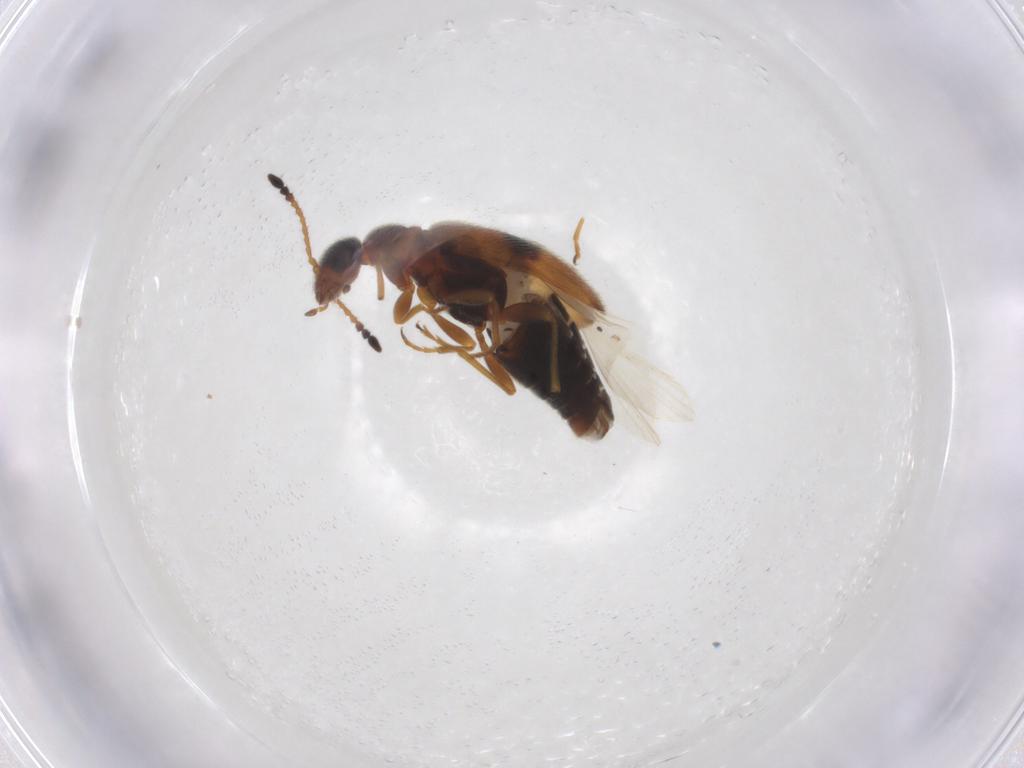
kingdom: Animalia
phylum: Arthropoda
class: Insecta
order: Coleoptera
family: Anthicidae
